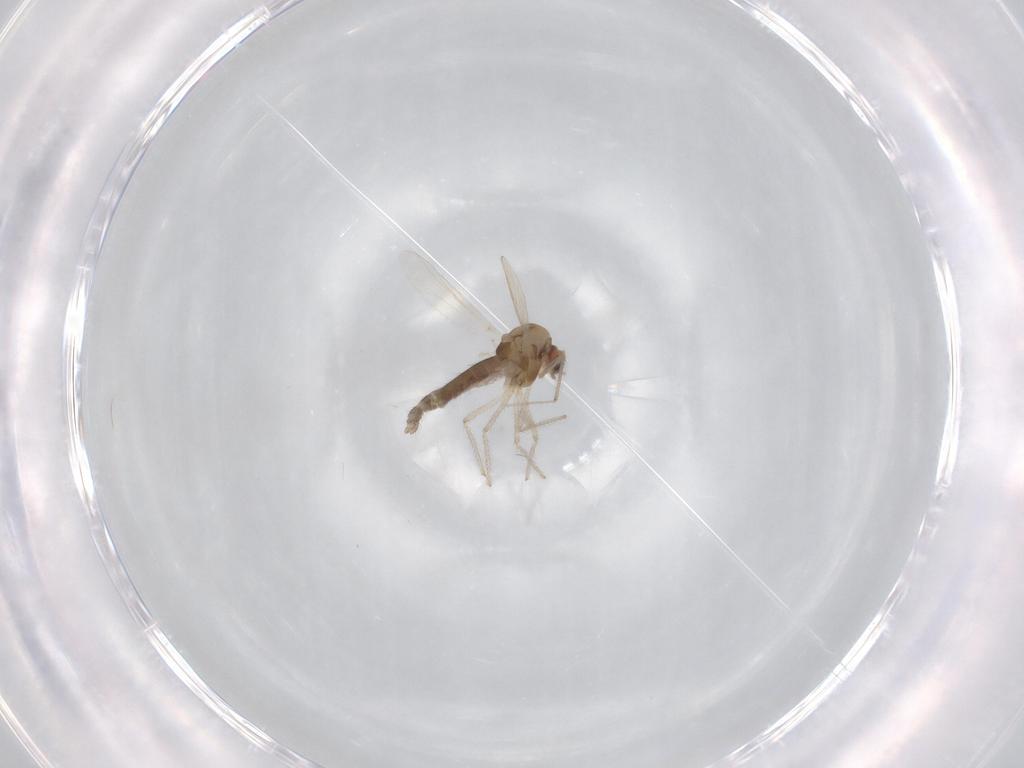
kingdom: Animalia
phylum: Arthropoda
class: Insecta
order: Diptera
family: Chironomidae
